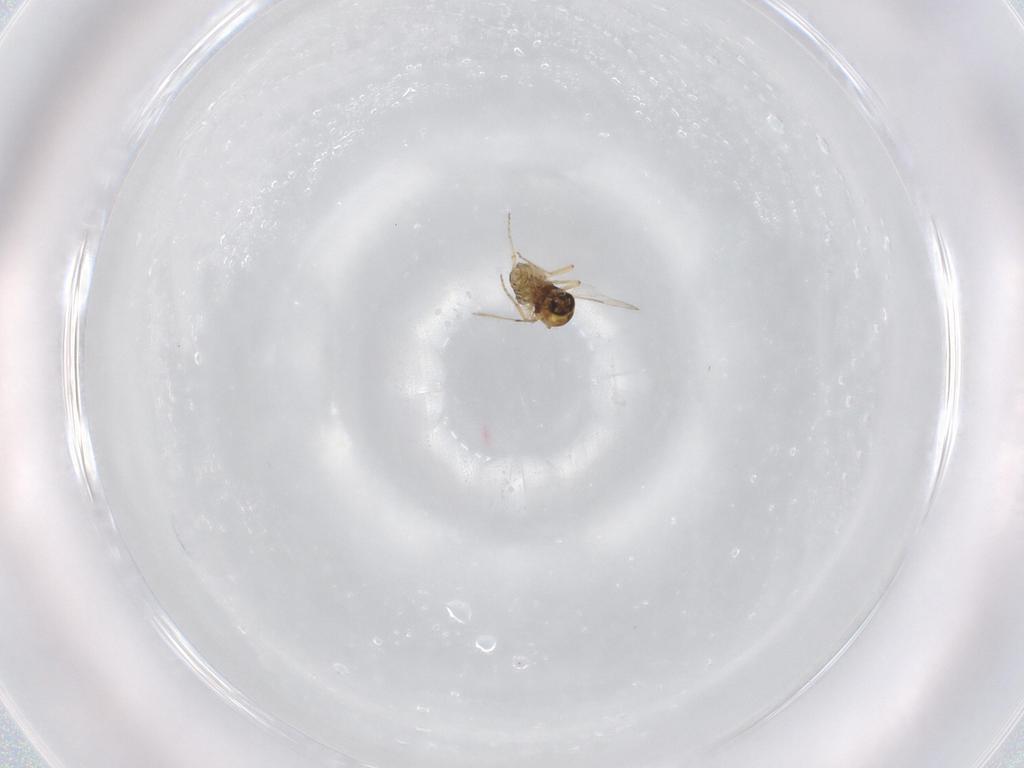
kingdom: Animalia
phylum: Arthropoda
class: Insecta
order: Diptera
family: Ceratopogonidae
